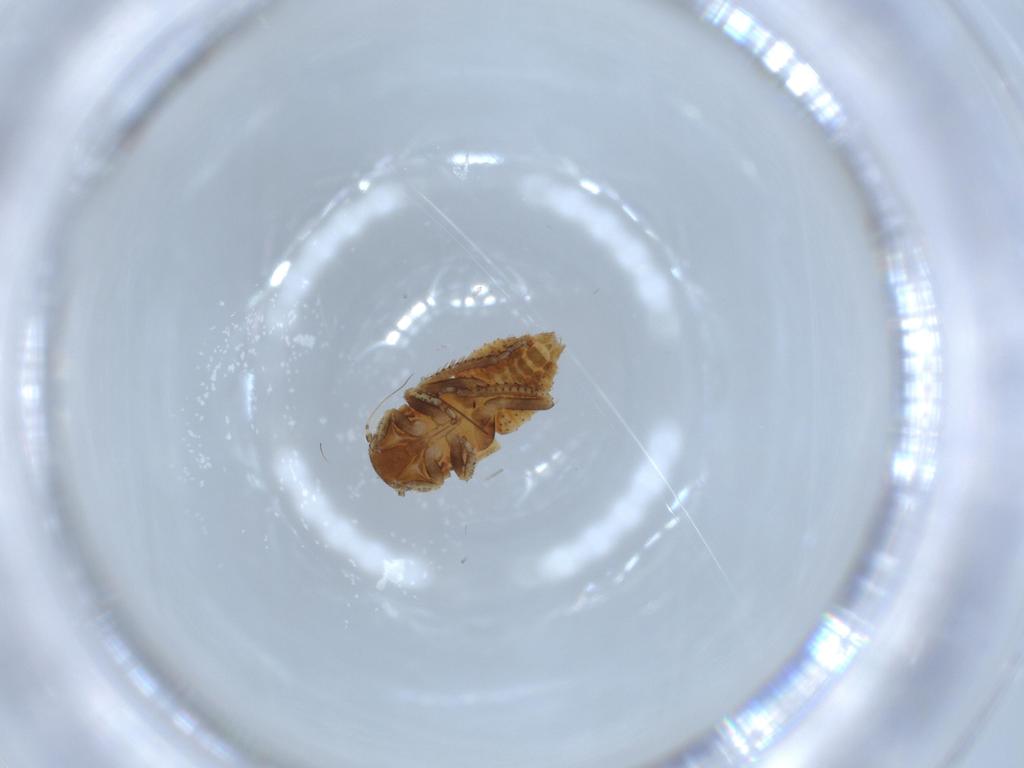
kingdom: Animalia
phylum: Arthropoda
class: Insecta
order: Hemiptera
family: Cicadellidae
